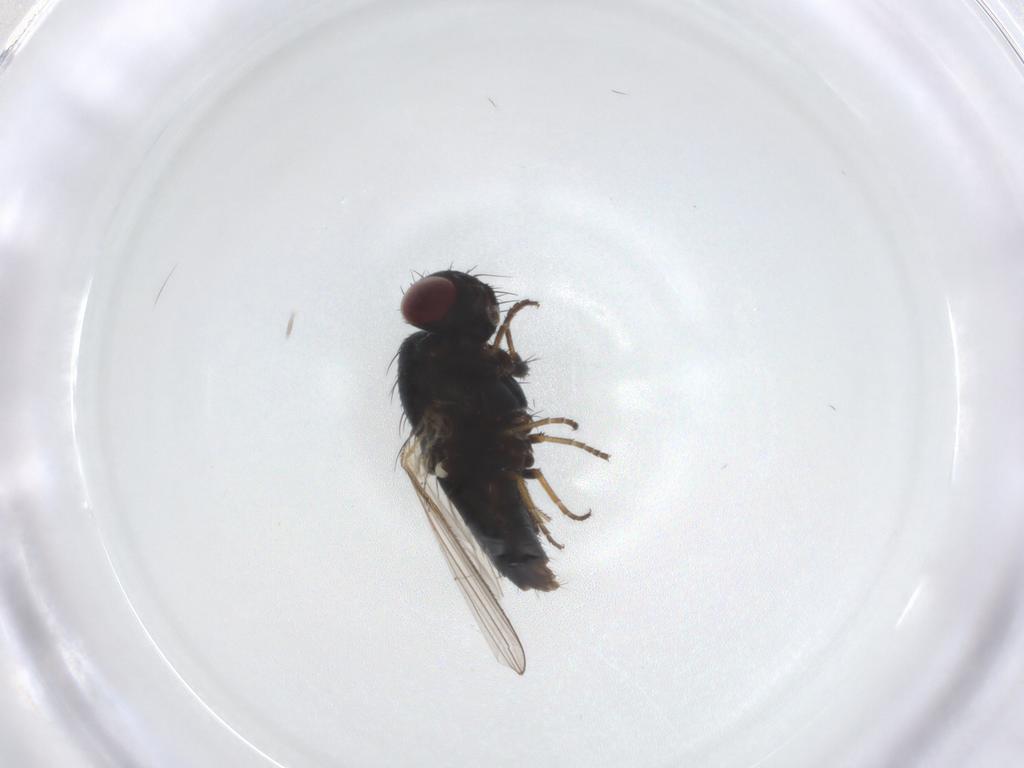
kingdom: Animalia
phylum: Arthropoda
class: Insecta
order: Diptera
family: Carnidae
